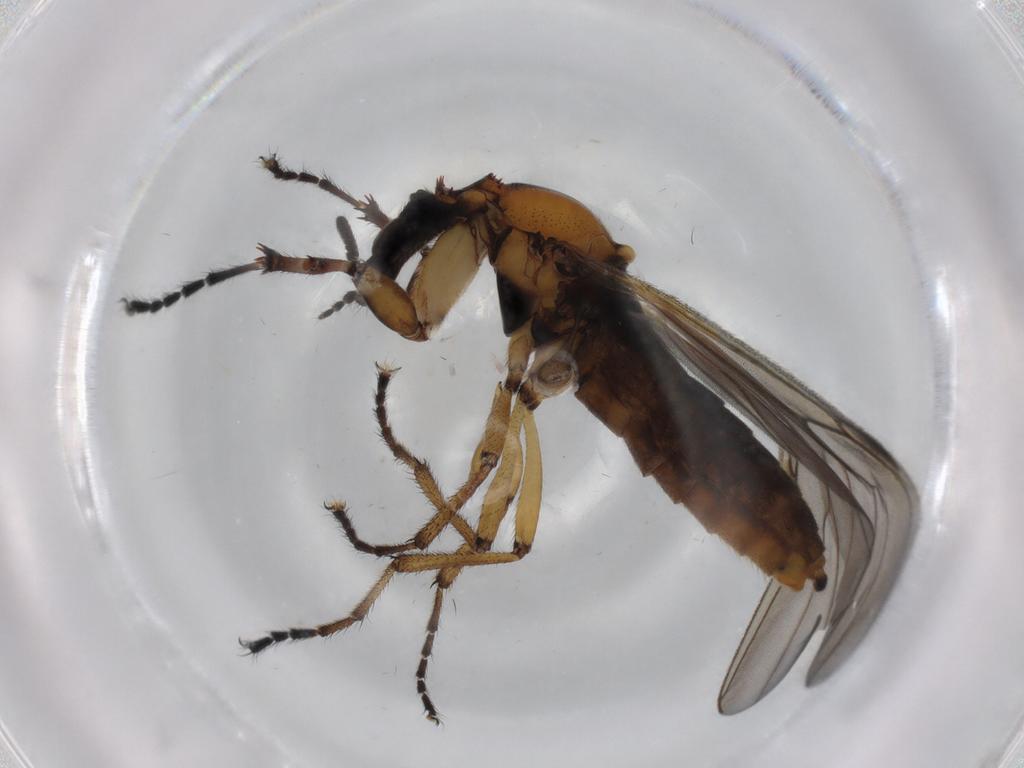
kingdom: Animalia
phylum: Arthropoda
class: Insecta
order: Diptera
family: Bibionidae
